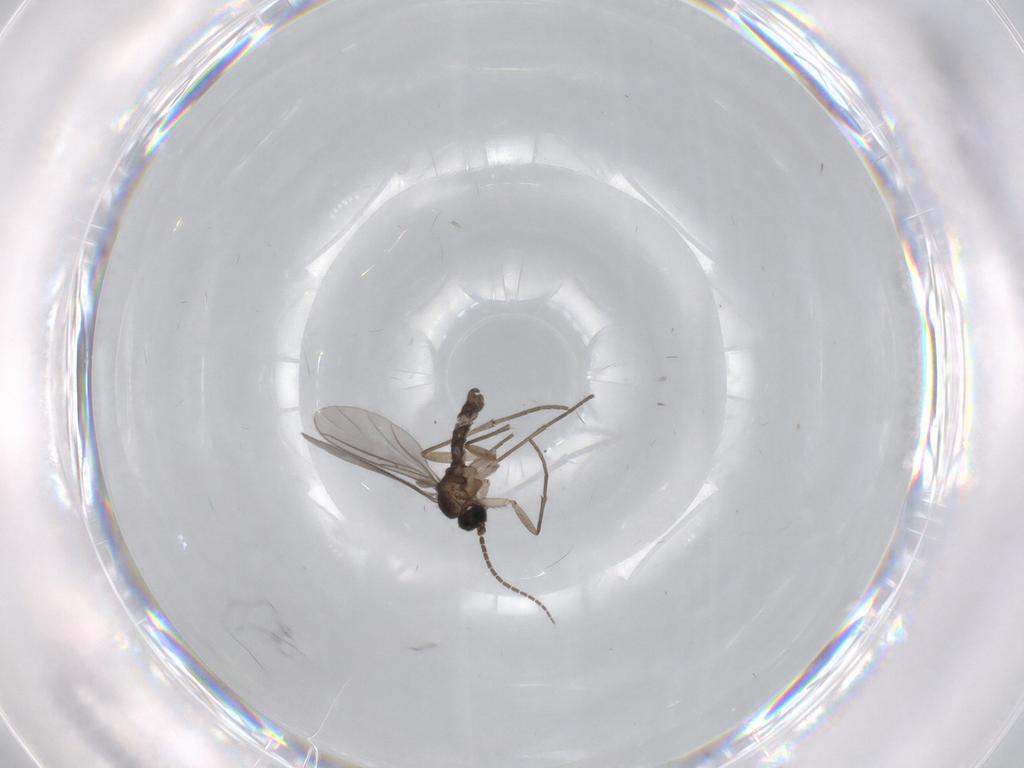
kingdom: Animalia
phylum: Arthropoda
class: Insecta
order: Diptera
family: Sciaridae
